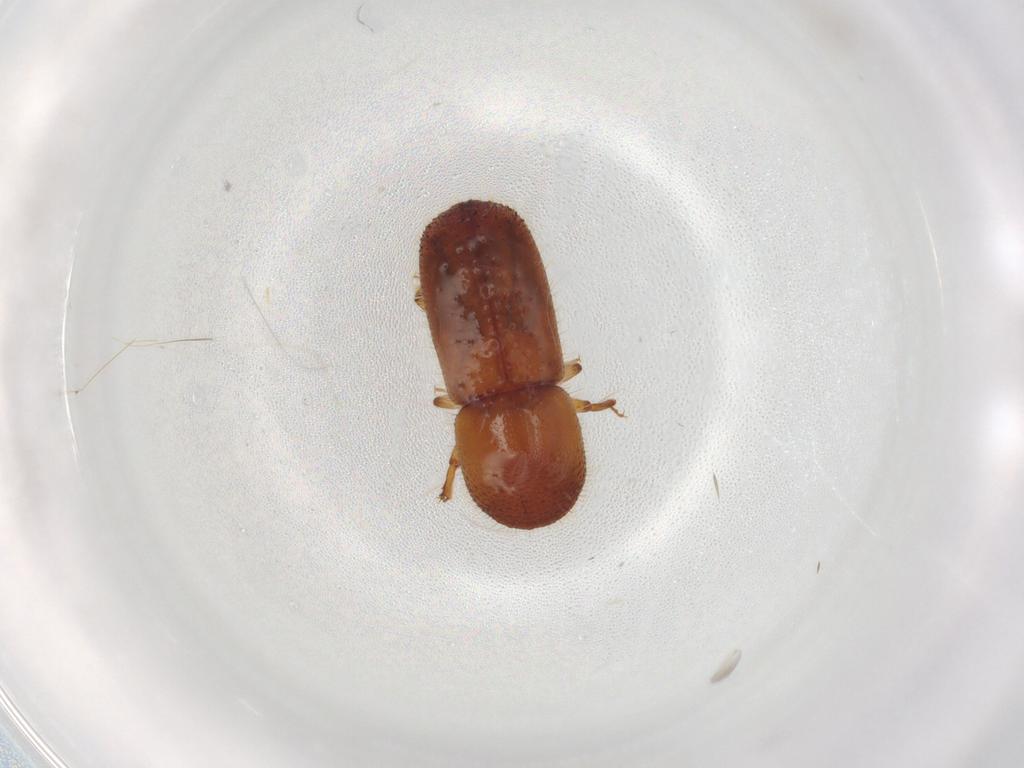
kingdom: Animalia
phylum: Arthropoda
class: Insecta
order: Coleoptera
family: Curculionidae
